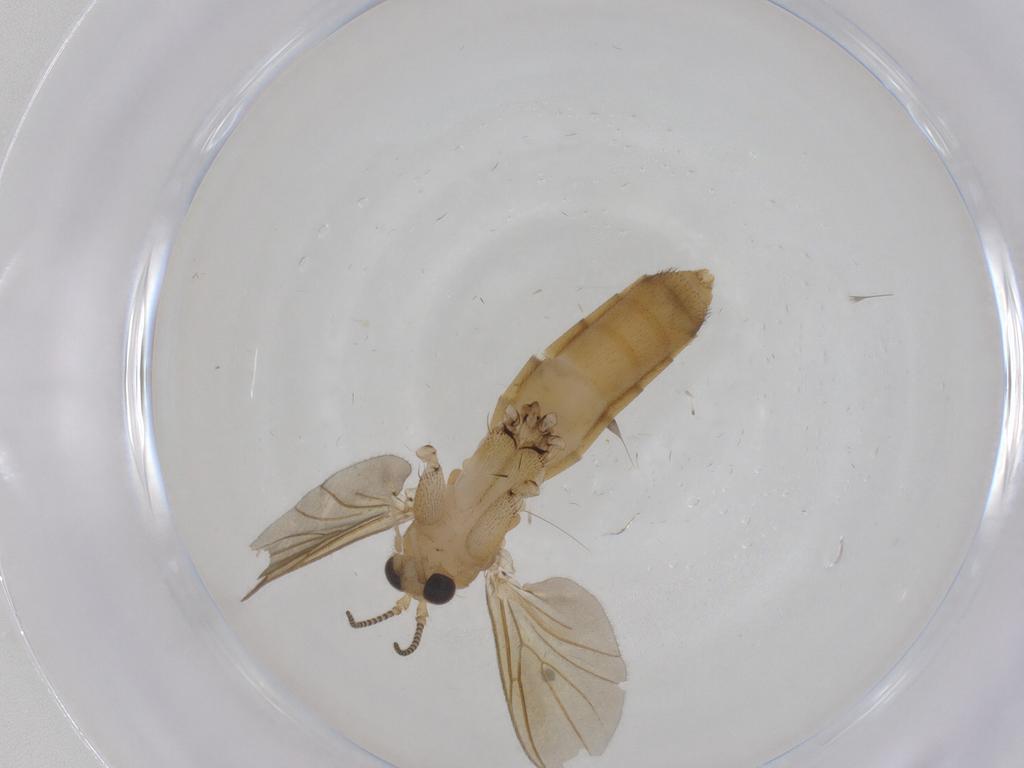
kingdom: Animalia
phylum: Arthropoda
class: Insecta
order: Diptera
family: Mycetophilidae
